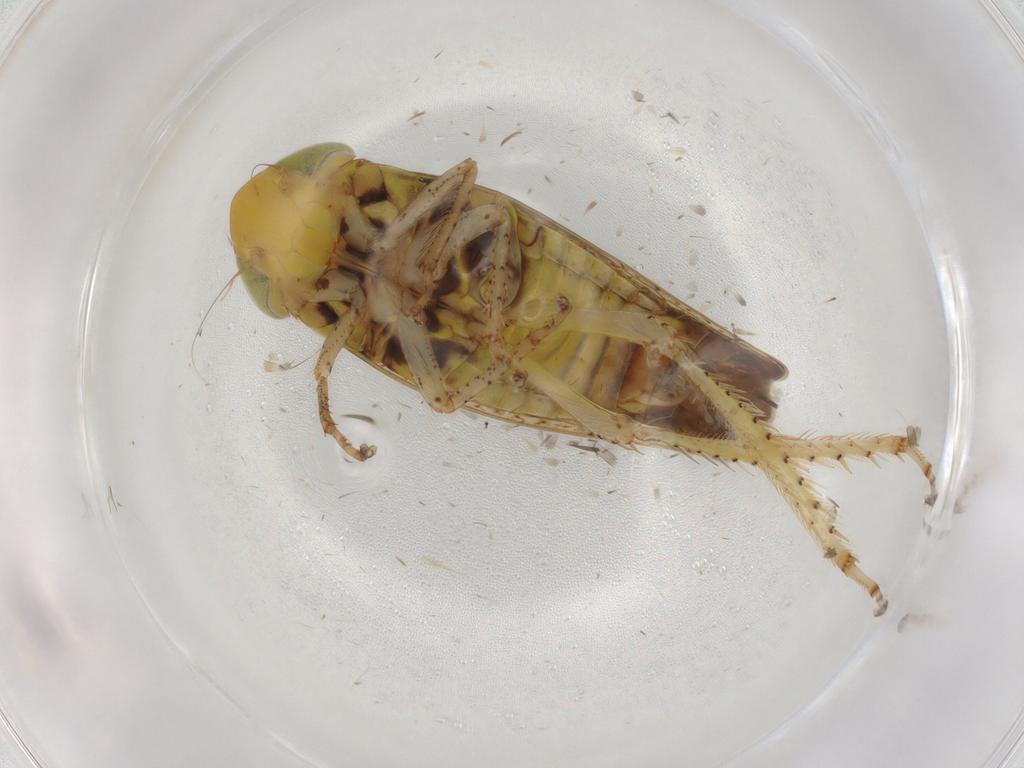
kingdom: Animalia
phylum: Arthropoda
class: Insecta
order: Hemiptera
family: Cicadellidae
